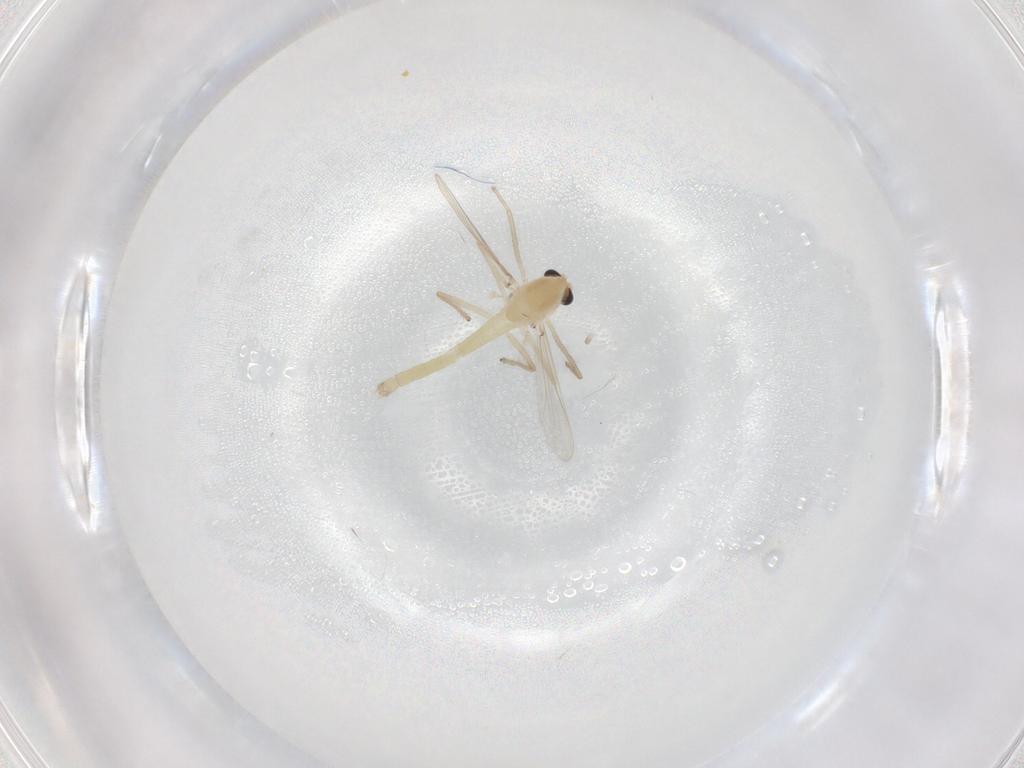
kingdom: Animalia
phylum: Arthropoda
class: Insecta
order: Diptera
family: Chironomidae
